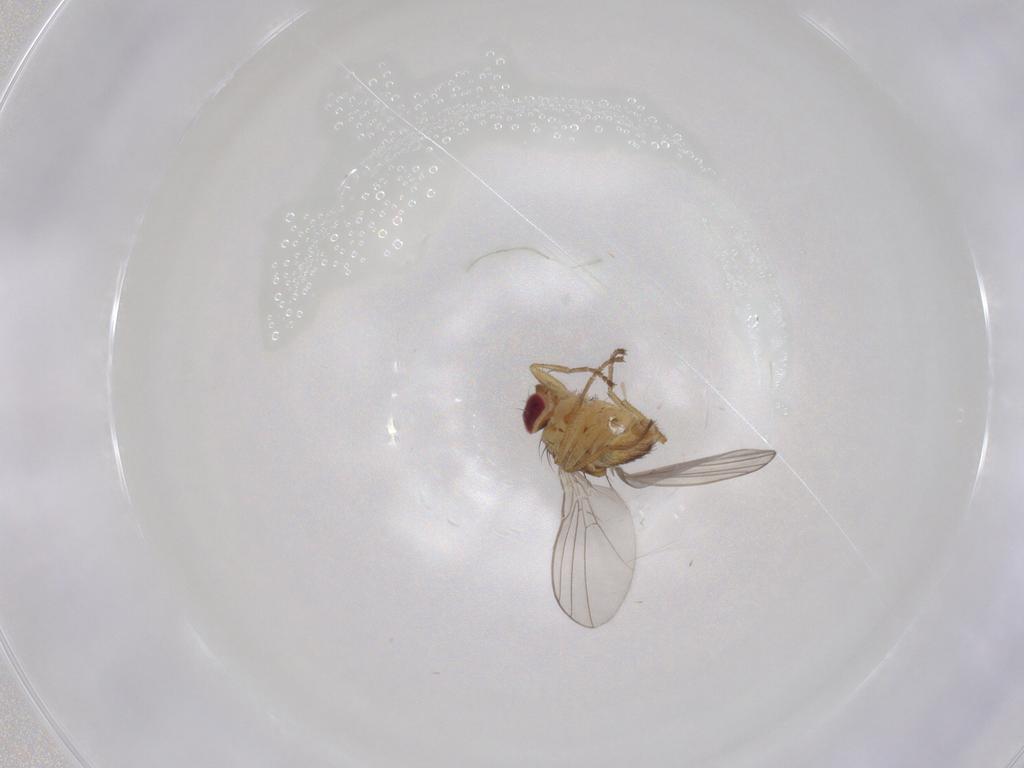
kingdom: Animalia
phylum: Arthropoda
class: Insecta
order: Diptera
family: Agromyzidae
